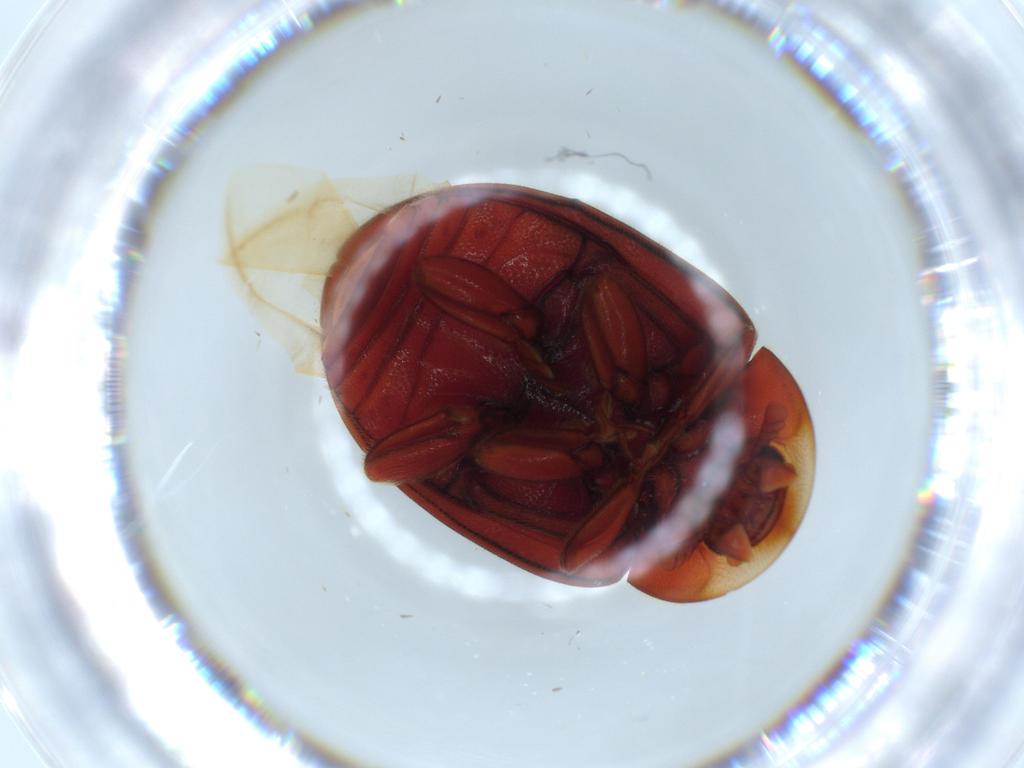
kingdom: Animalia
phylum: Arthropoda
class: Insecta
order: Coleoptera
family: Coccinellidae
